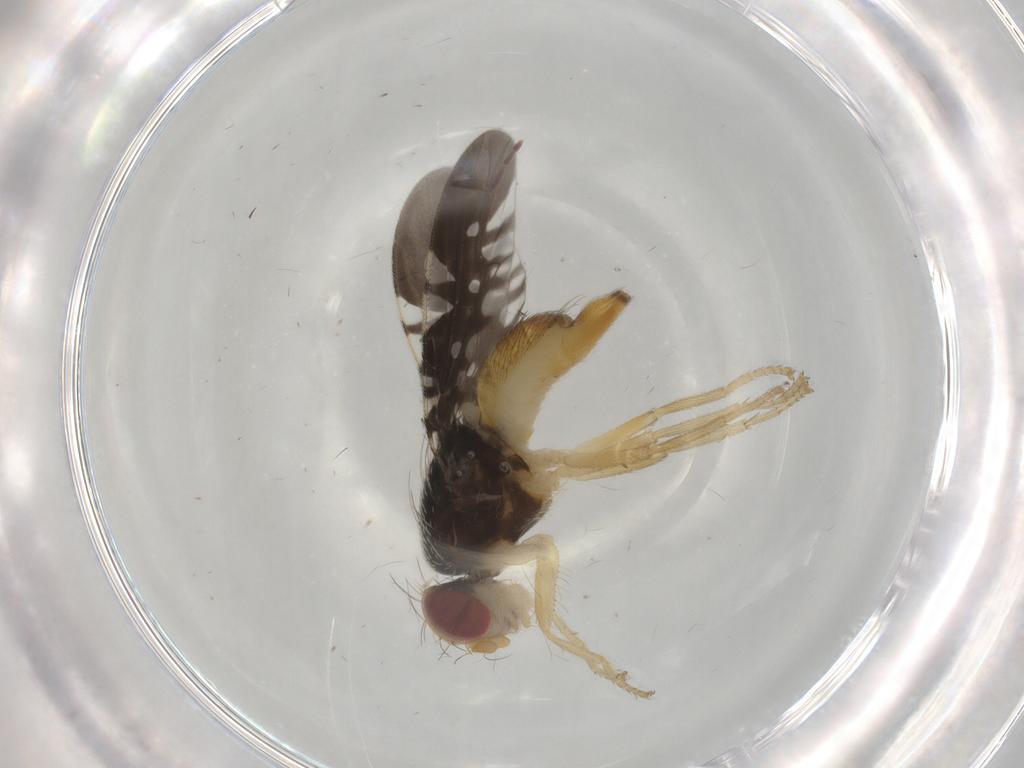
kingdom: Animalia
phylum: Arthropoda
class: Insecta
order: Diptera
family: Tephritidae
